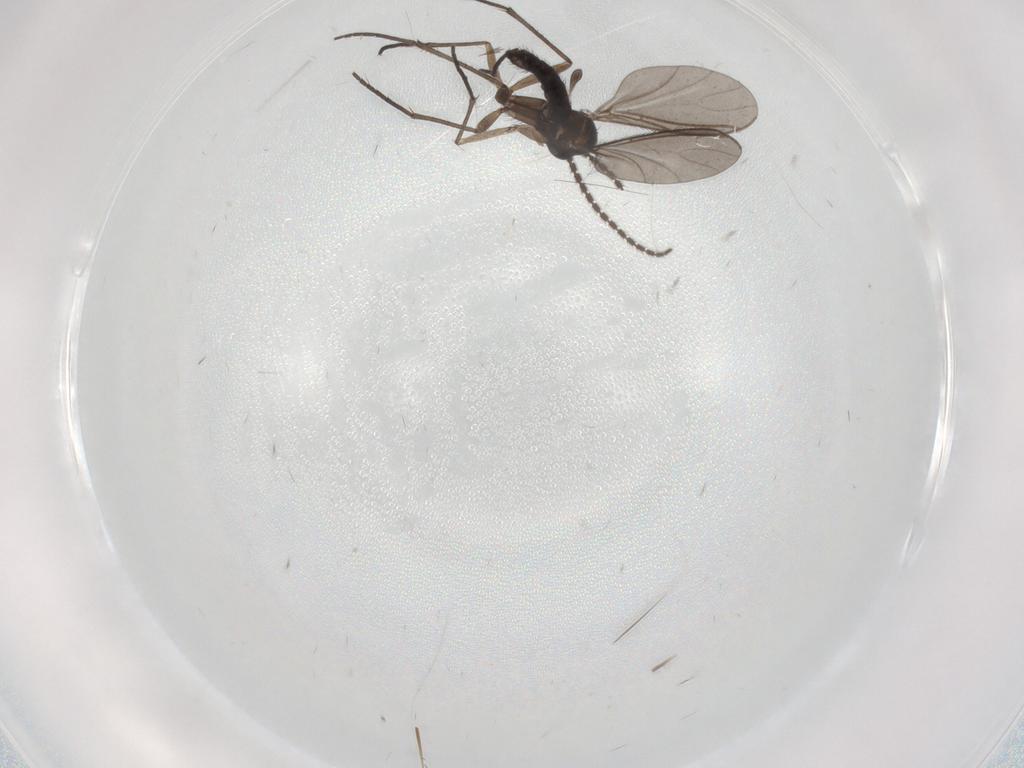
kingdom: Animalia
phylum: Arthropoda
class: Insecta
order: Diptera
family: Sciaridae
